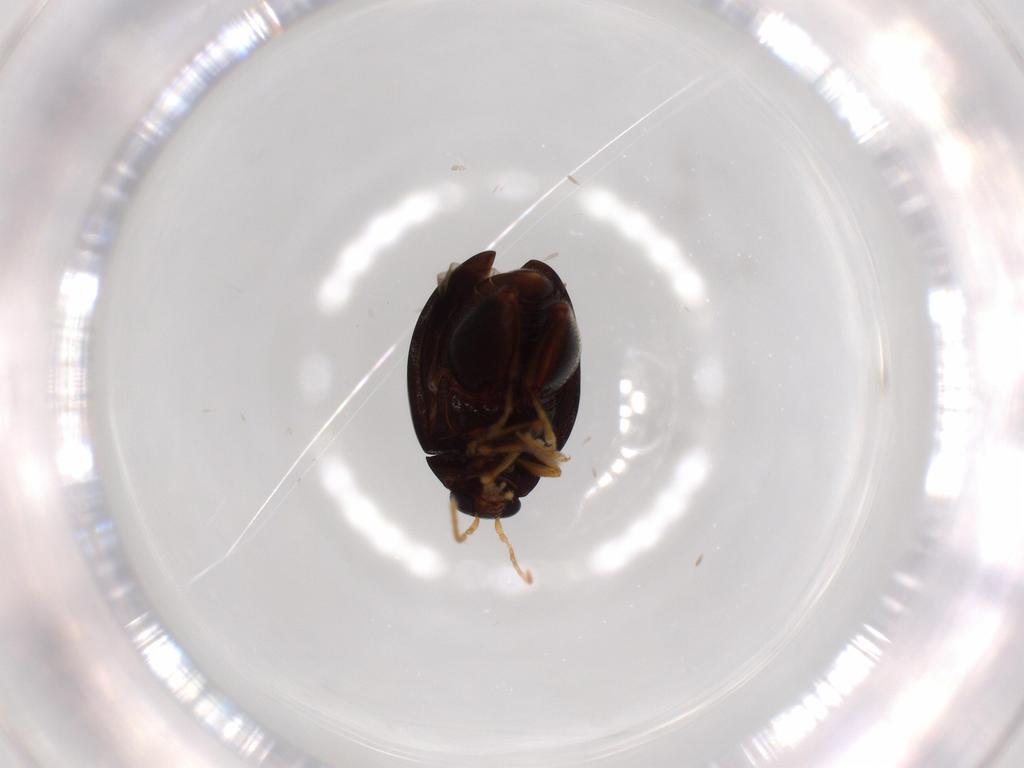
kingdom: Animalia
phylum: Arthropoda
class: Insecta
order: Coleoptera
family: Chrysomelidae
